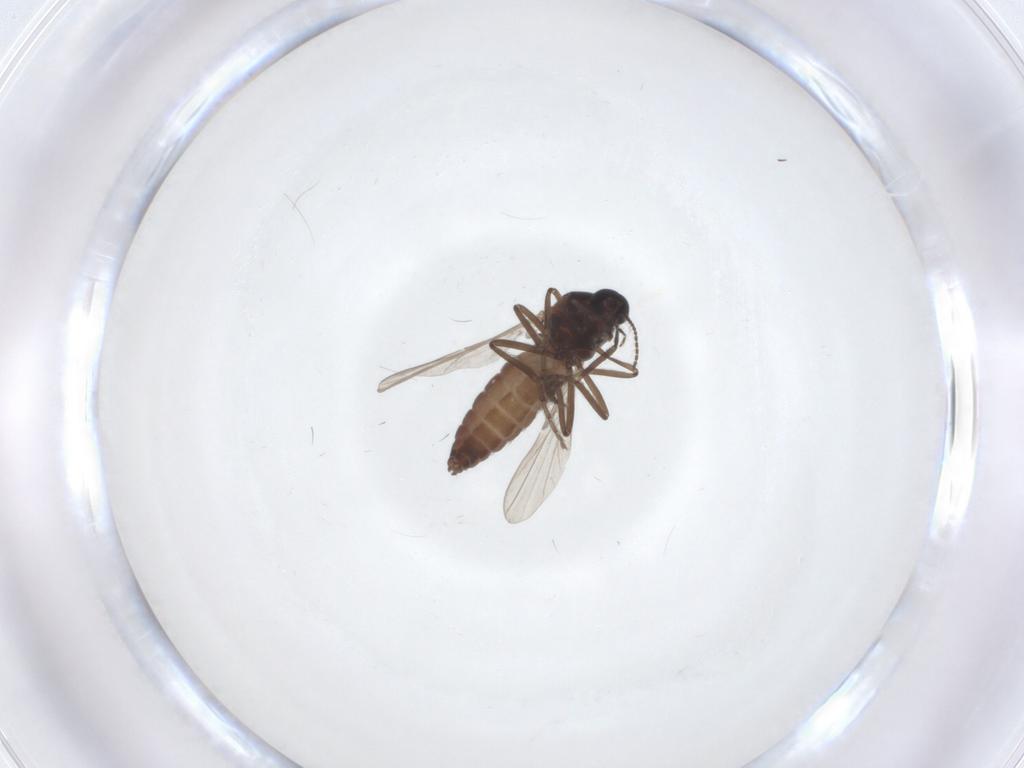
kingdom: Animalia
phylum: Arthropoda
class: Insecta
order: Diptera
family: Ceratopogonidae
